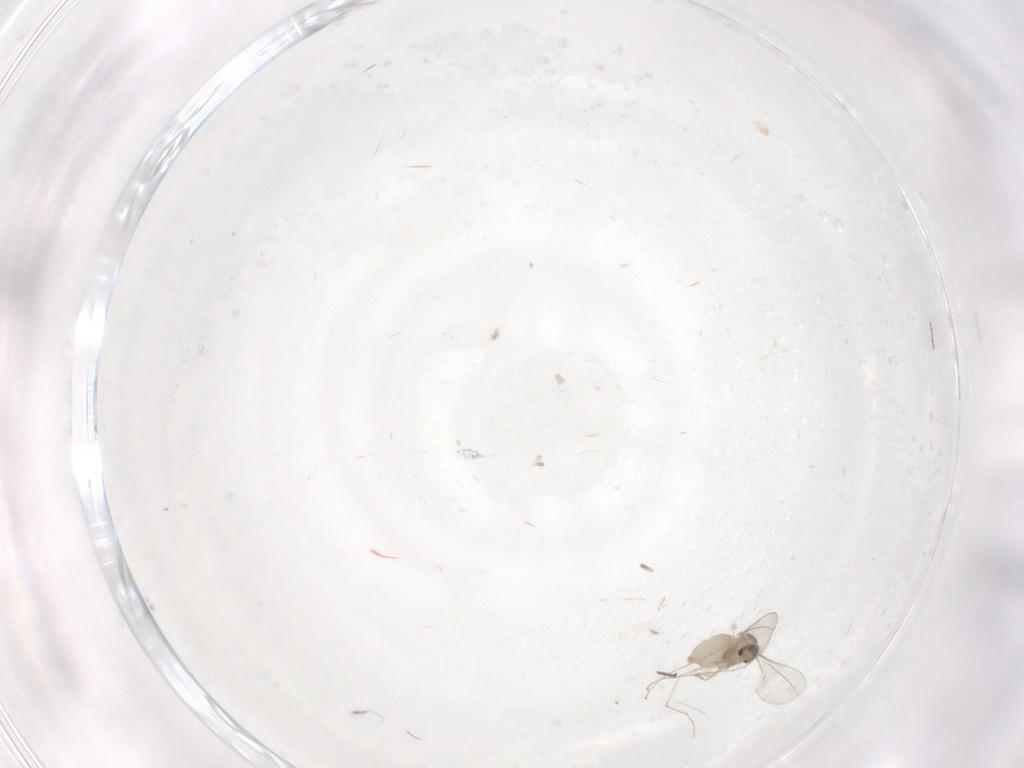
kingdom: Animalia
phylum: Arthropoda
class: Insecta
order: Diptera
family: Cecidomyiidae
